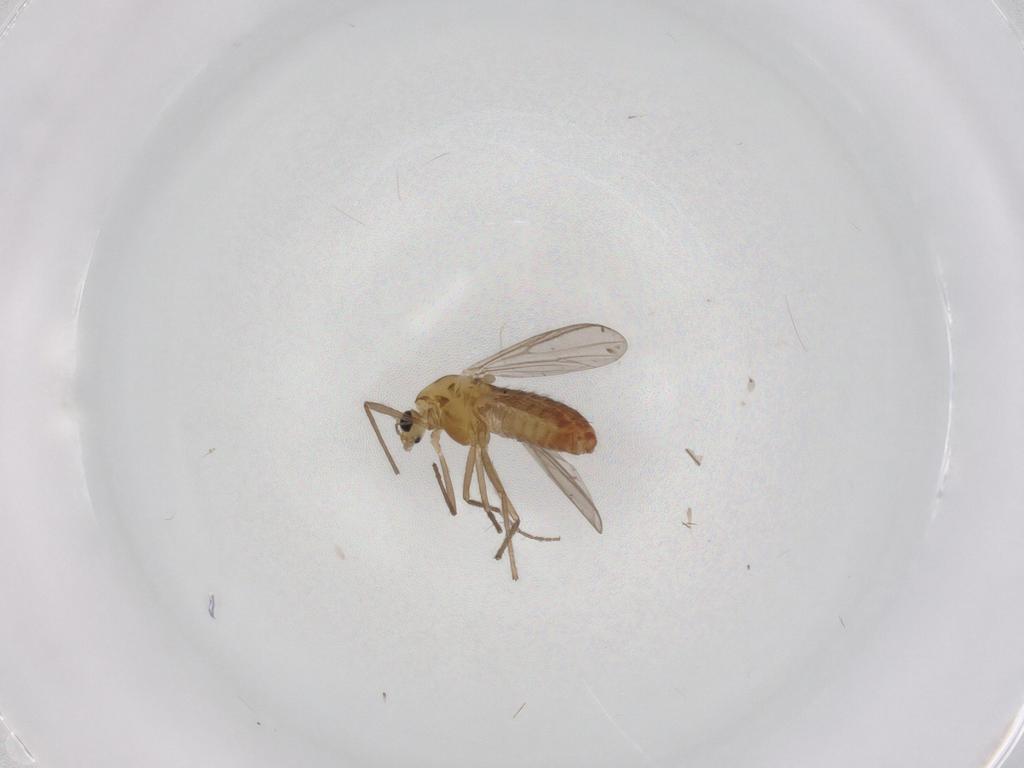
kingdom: Animalia
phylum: Arthropoda
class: Insecta
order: Diptera
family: Chironomidae
